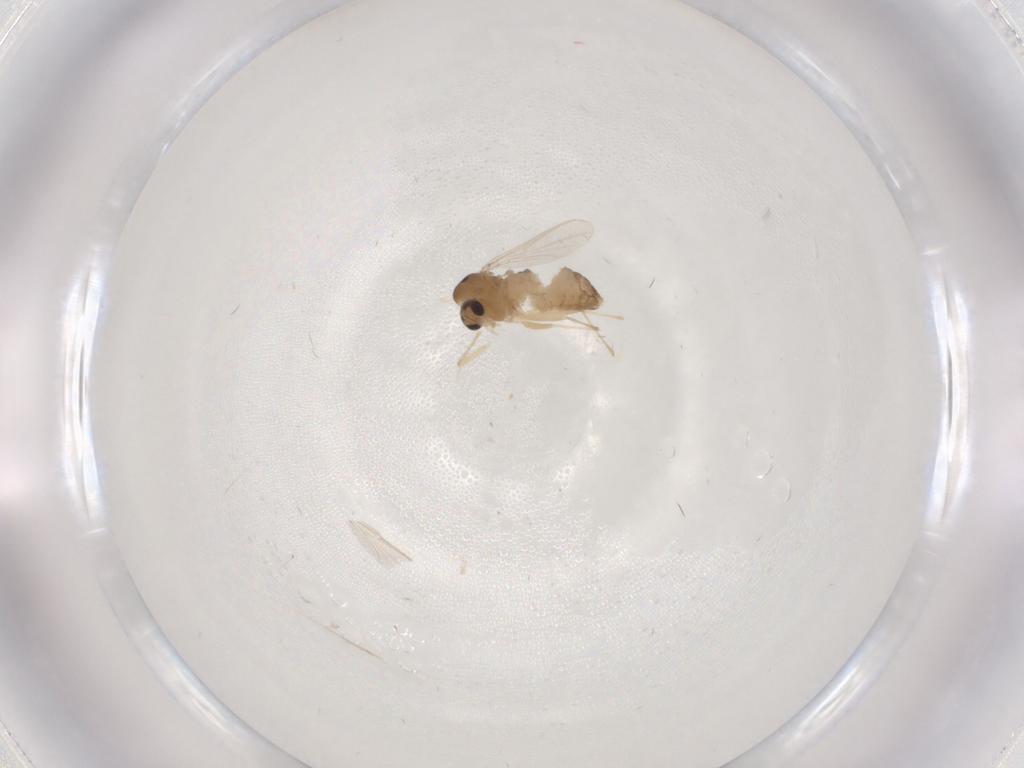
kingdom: Animalia
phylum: Arthropoda
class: Insecta
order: Diptera
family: Chironomidae
